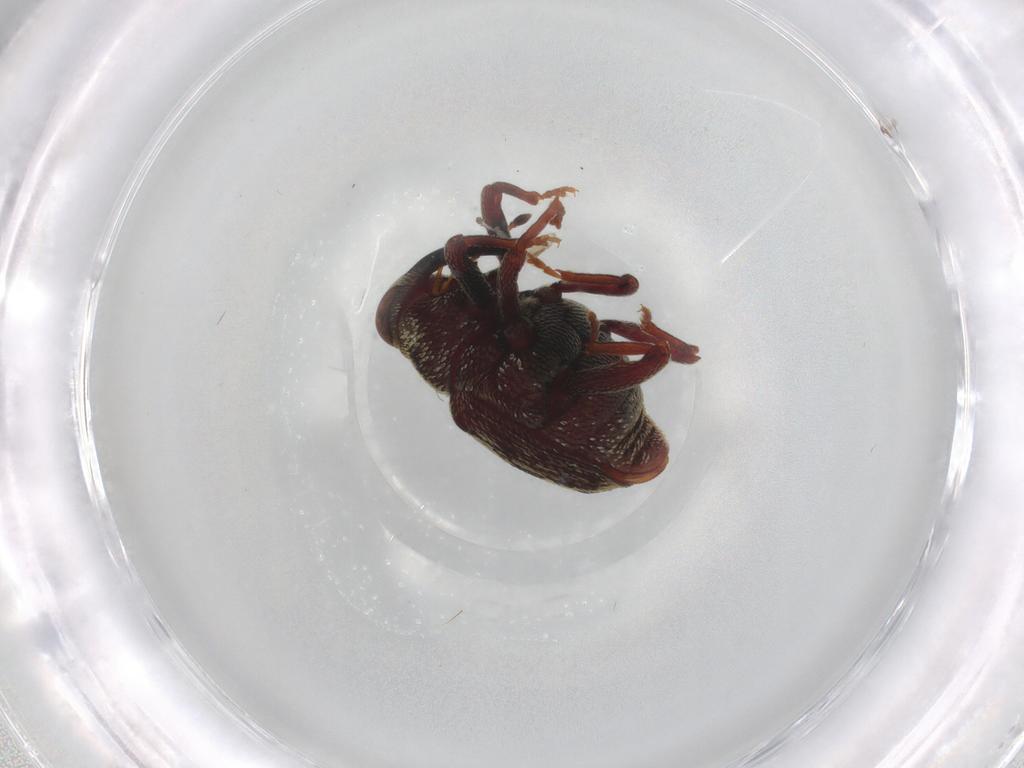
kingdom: Animalia
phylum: Arthropoda
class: Insecta
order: Coleoptera
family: Curculionidae
